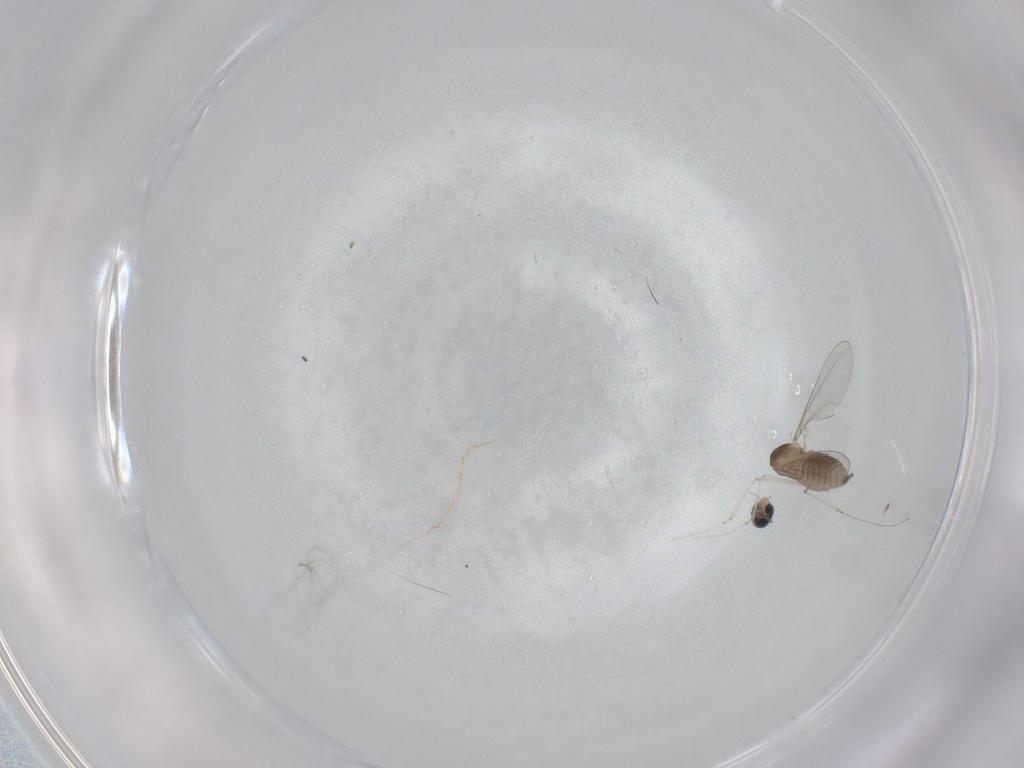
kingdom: Animalia
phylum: Arthropoda
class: Insecta
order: Diptera
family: Cecidomyiidae
